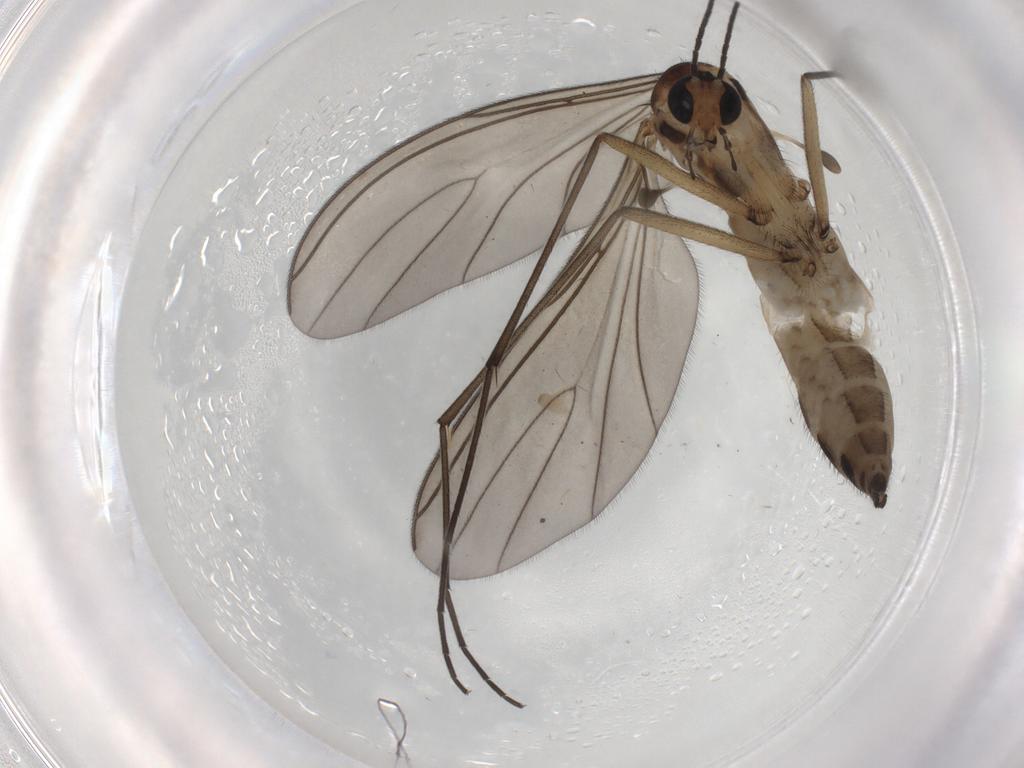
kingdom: Animalia
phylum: Arthropoda
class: Insecta
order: Diptera
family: Sciaridae
